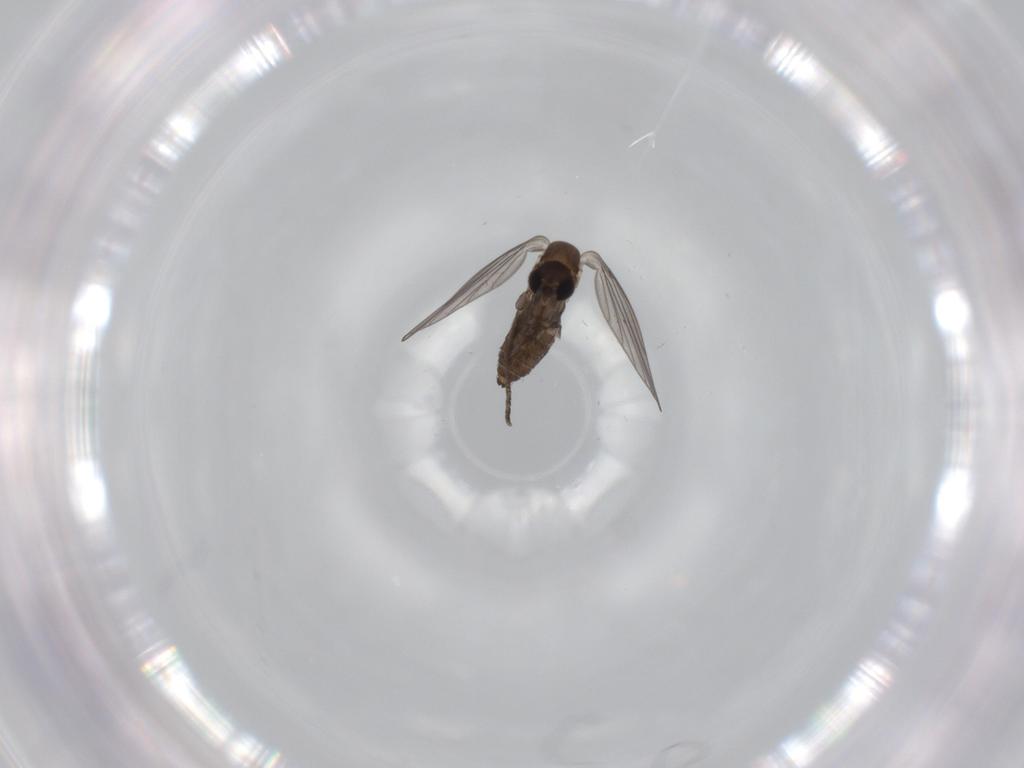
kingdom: Animalia
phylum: Arthropoda
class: Insecta
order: Diptera
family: Psychodidae
